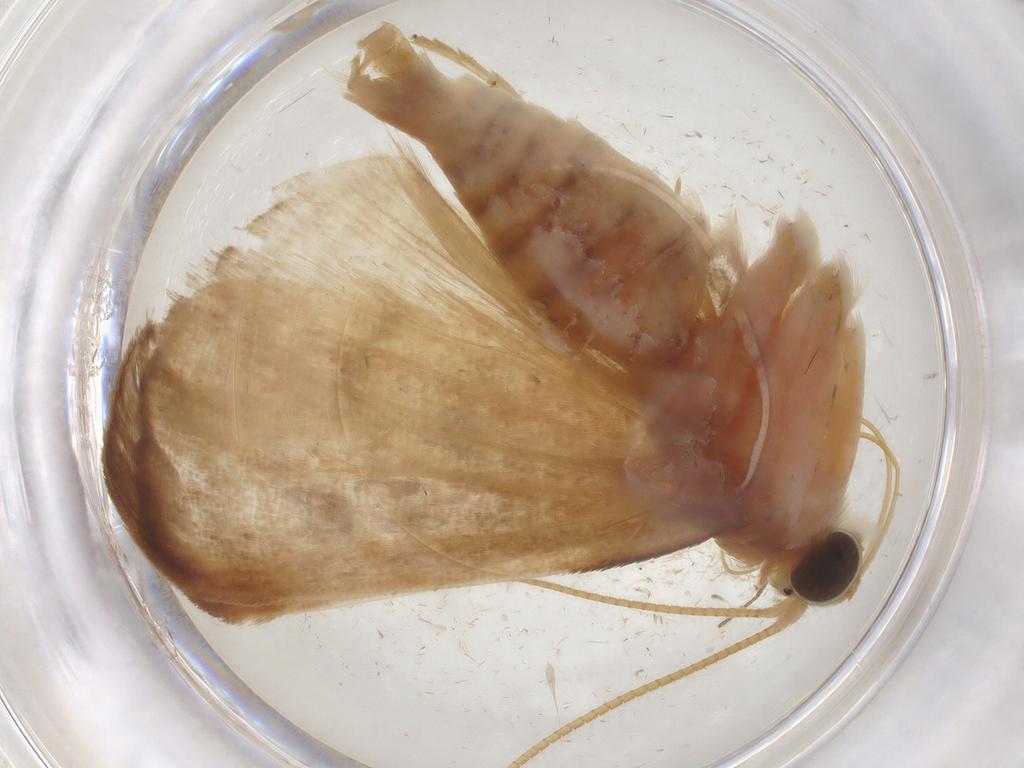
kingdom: Animalia
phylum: Arthropoda
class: Insecta
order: Lepidoptera
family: Crambidae
